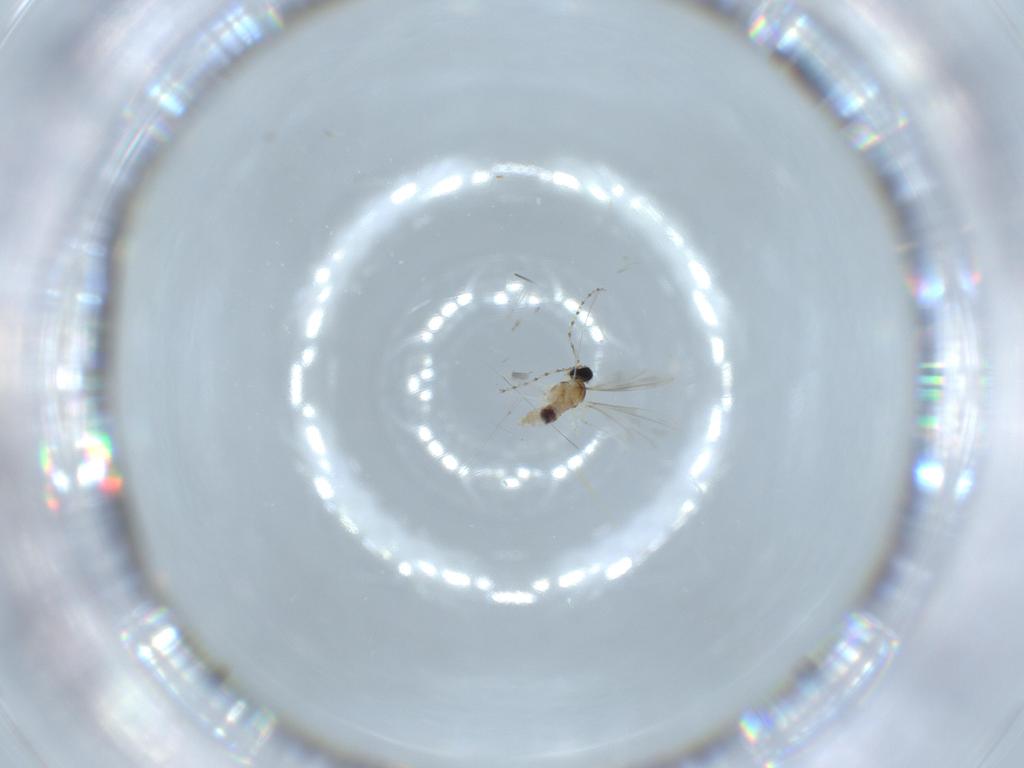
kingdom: Animalia
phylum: Arthropoda
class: Insecta
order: Diptera
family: Cecidomyiidae
